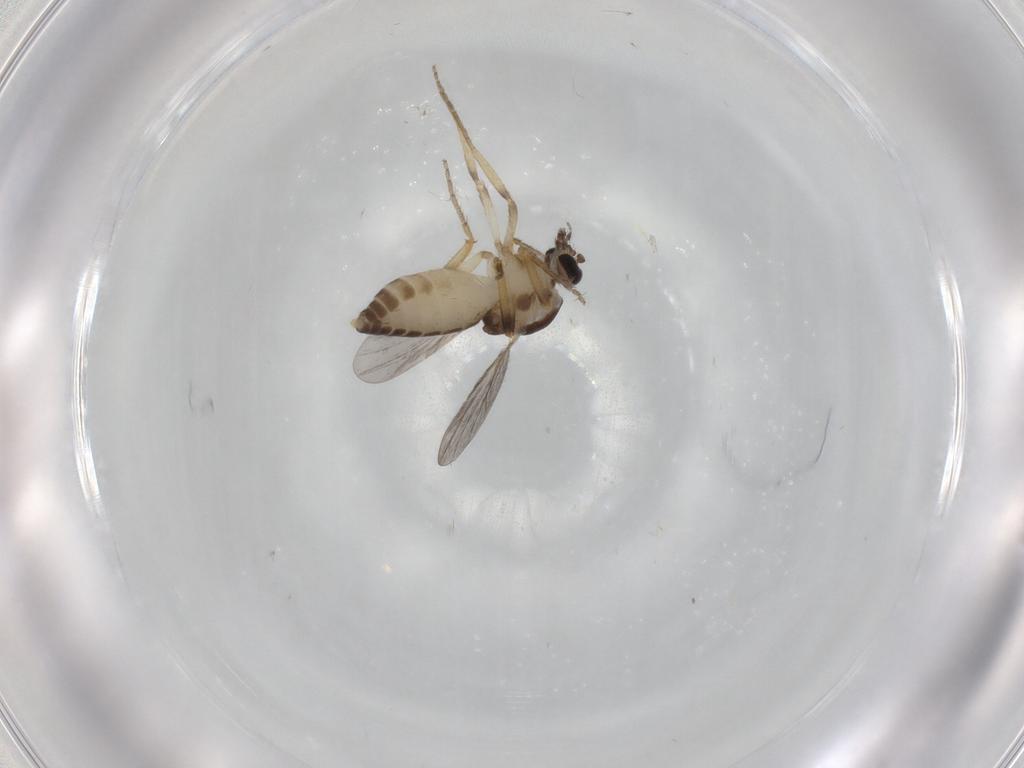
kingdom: Animalia
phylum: Arthropoda
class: Insecta
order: Diptera
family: Ceratopogonidae
